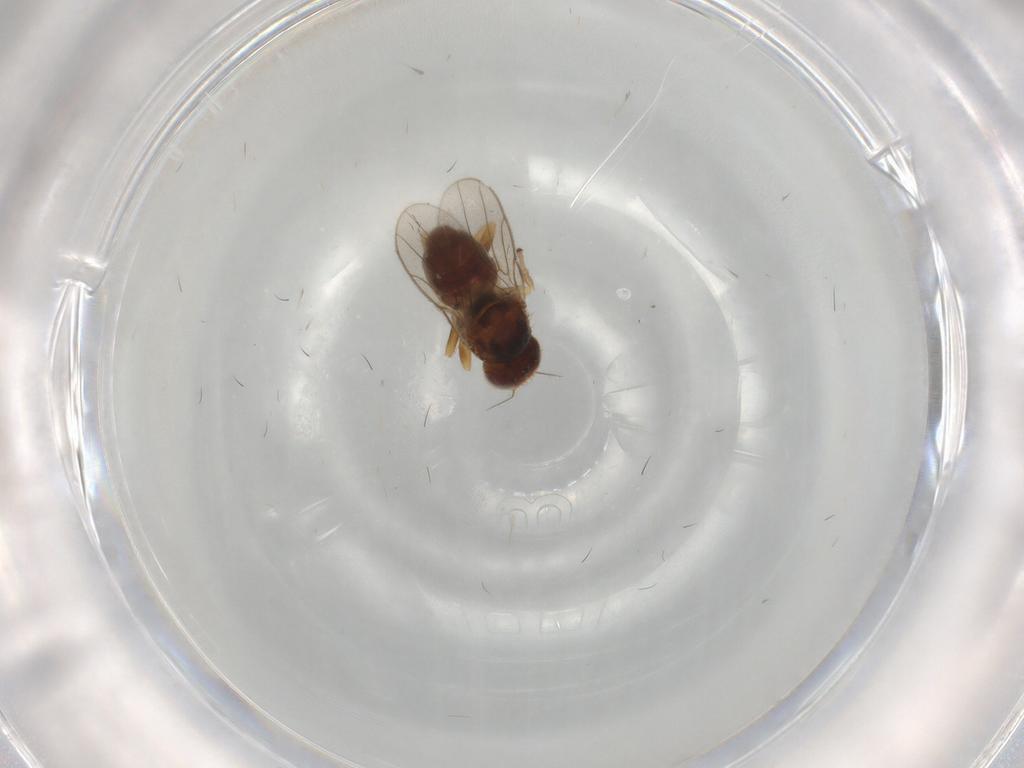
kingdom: Animalia
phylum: Arthropoda
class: Insecta
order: Diptera
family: Chloropidae
